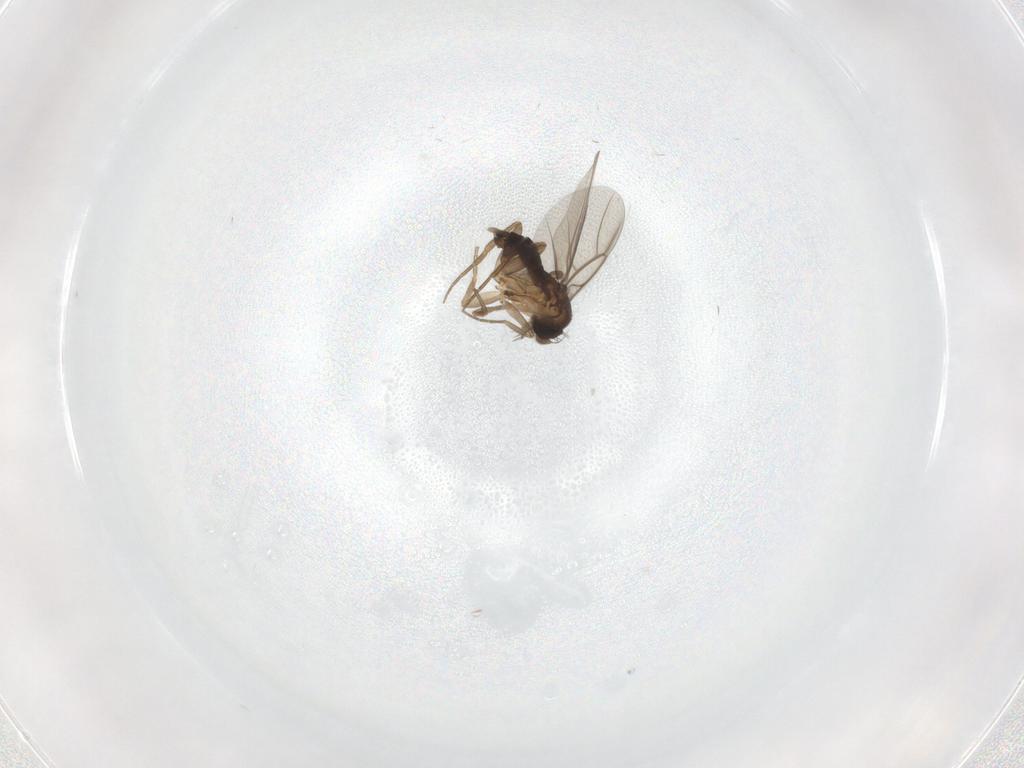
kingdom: Animalia
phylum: Arthropoda
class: Insecta
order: Diptera
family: Phoridae
